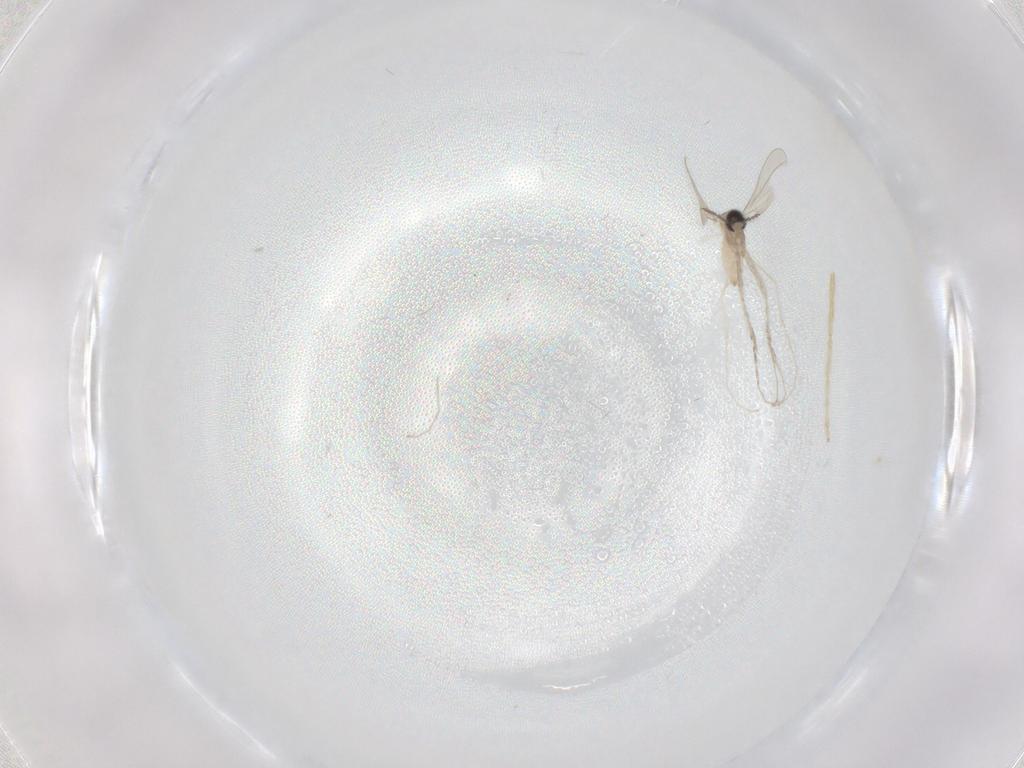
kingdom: Animalia
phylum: Arthropoda
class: Insecta
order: Diptera
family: Cecidomyiidae
